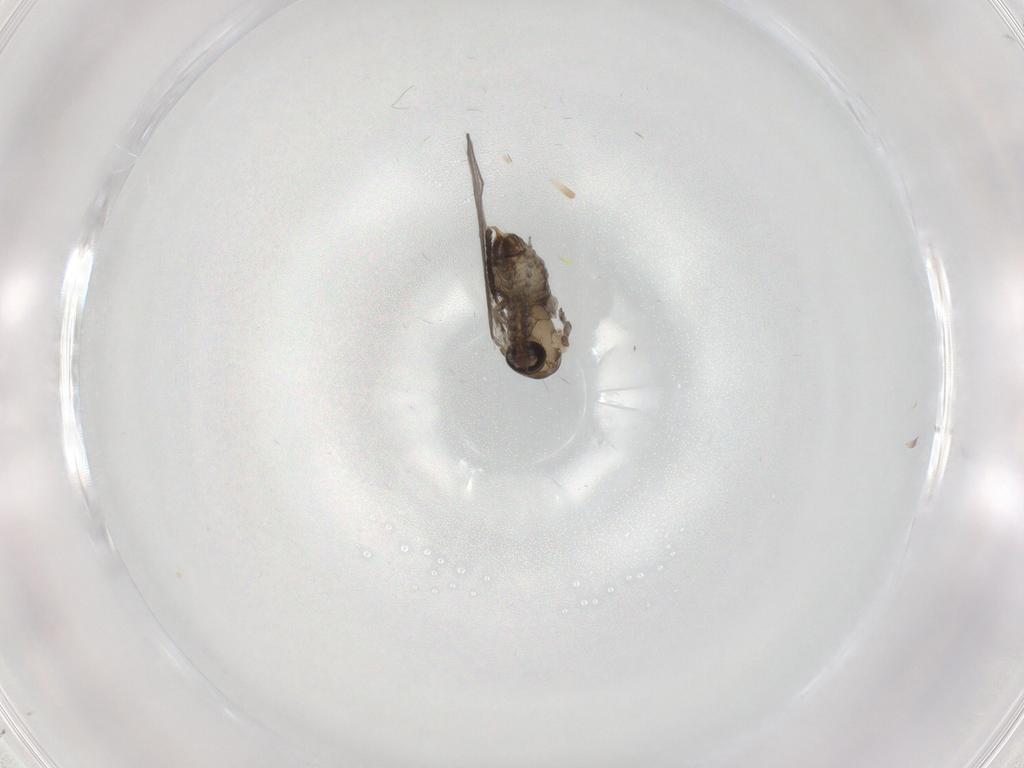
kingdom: Animalia
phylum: Arthropoda
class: Insecta
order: Diptera
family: Psychodidae
